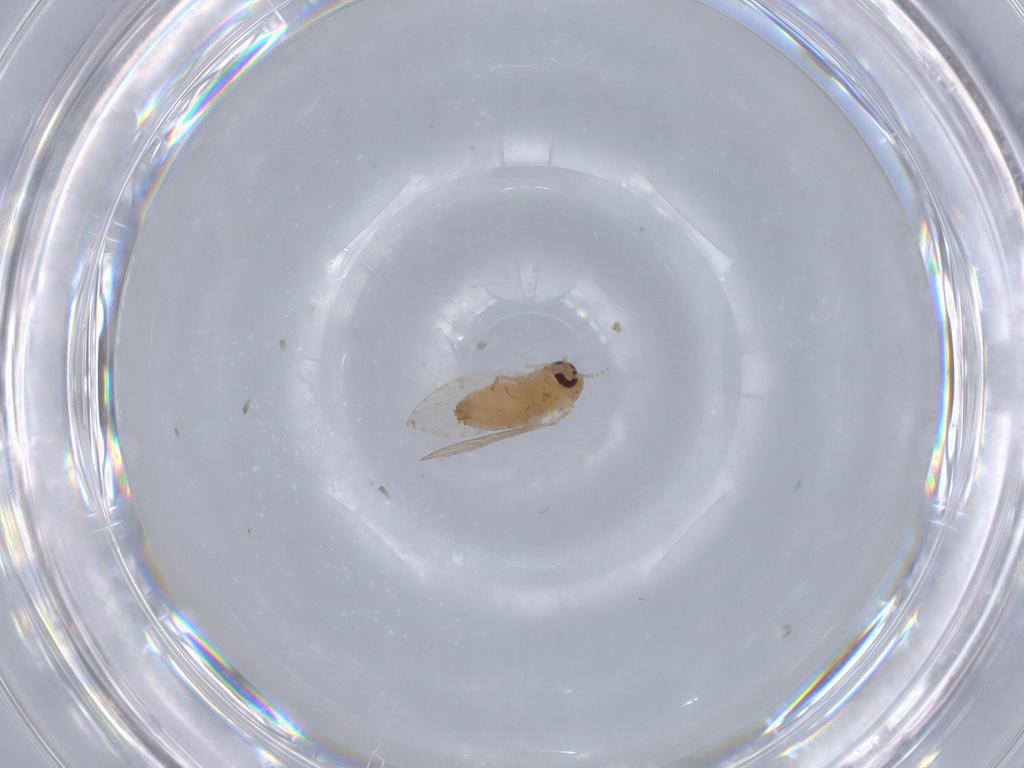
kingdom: Animalia
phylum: Arthropoda
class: Insecta
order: Diptera
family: Psychodidae
